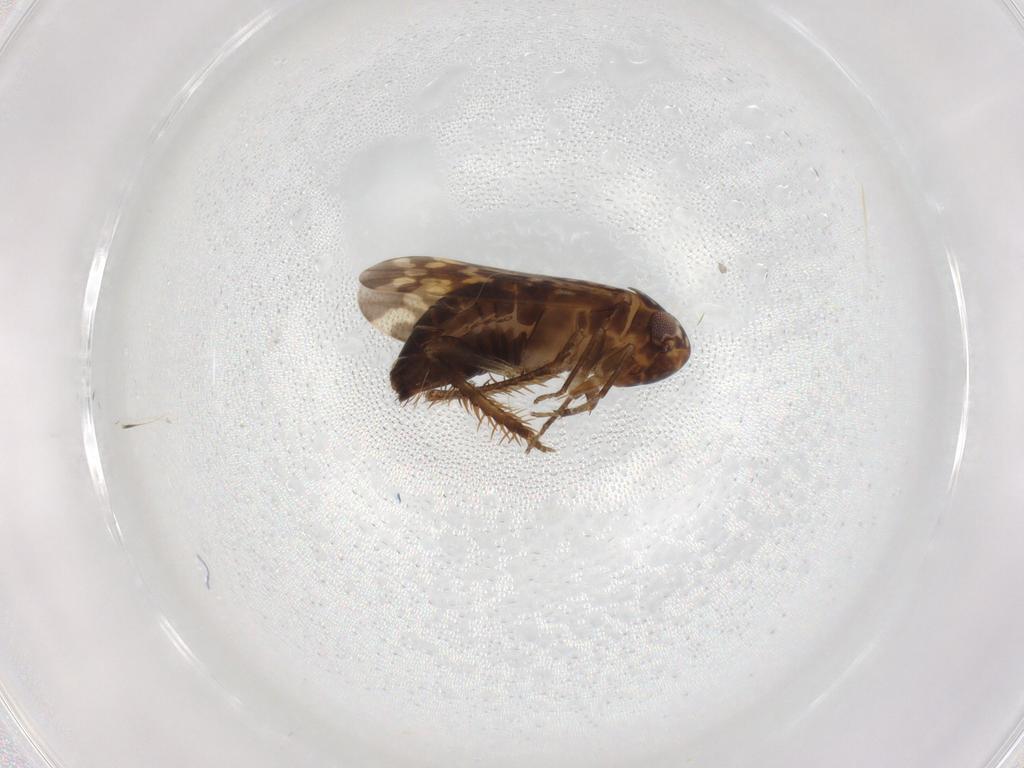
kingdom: Animalia
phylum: Arthropoda
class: Insecta
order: Hemiptera
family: Cicadellidae
